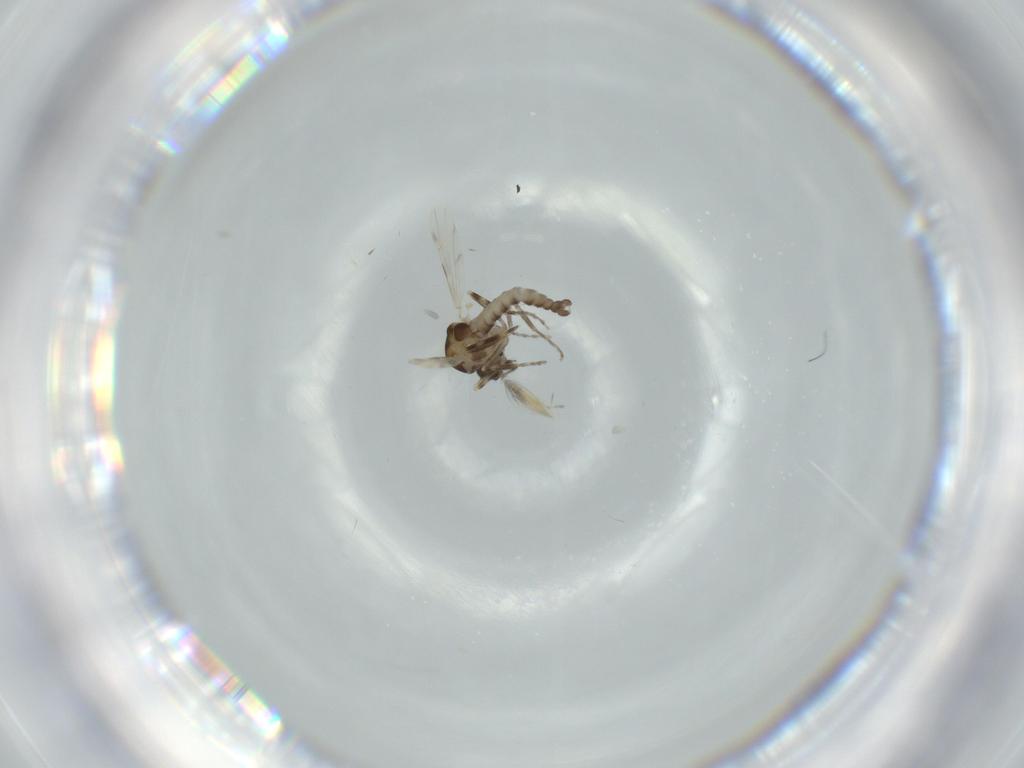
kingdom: Animalia
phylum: Arthropoda
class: Insecta
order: Diptera
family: Ceratopogonidae
